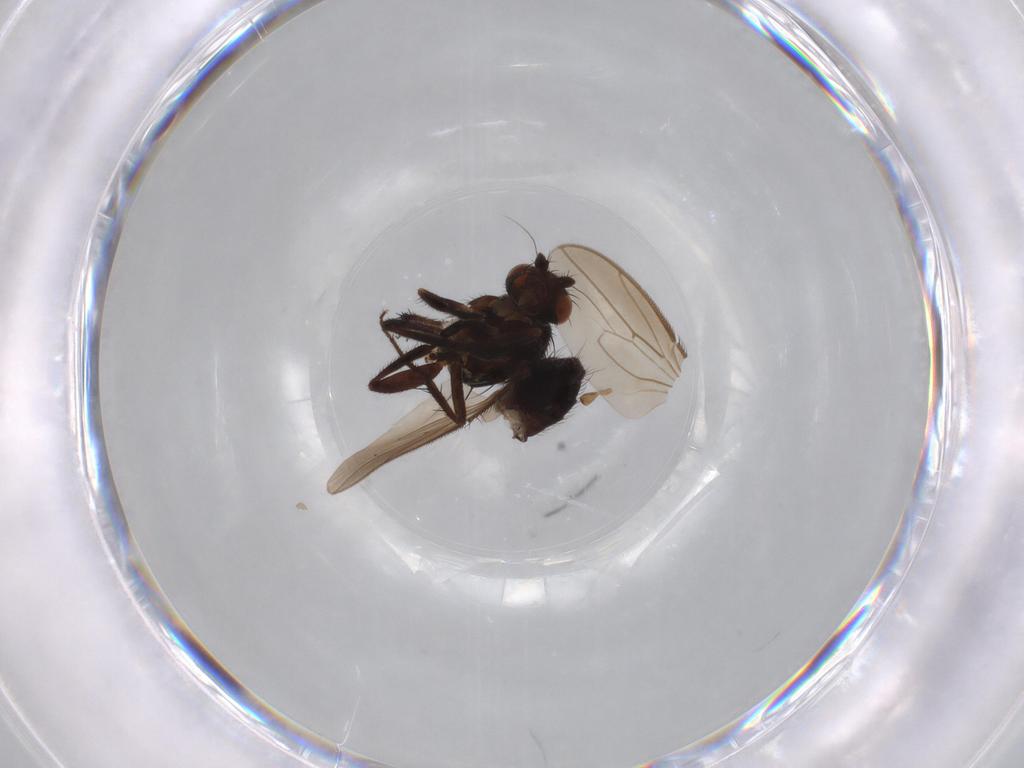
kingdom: Animalia
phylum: Arthropoda
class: Insecta
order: Diptera
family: Sphaeroceridae
